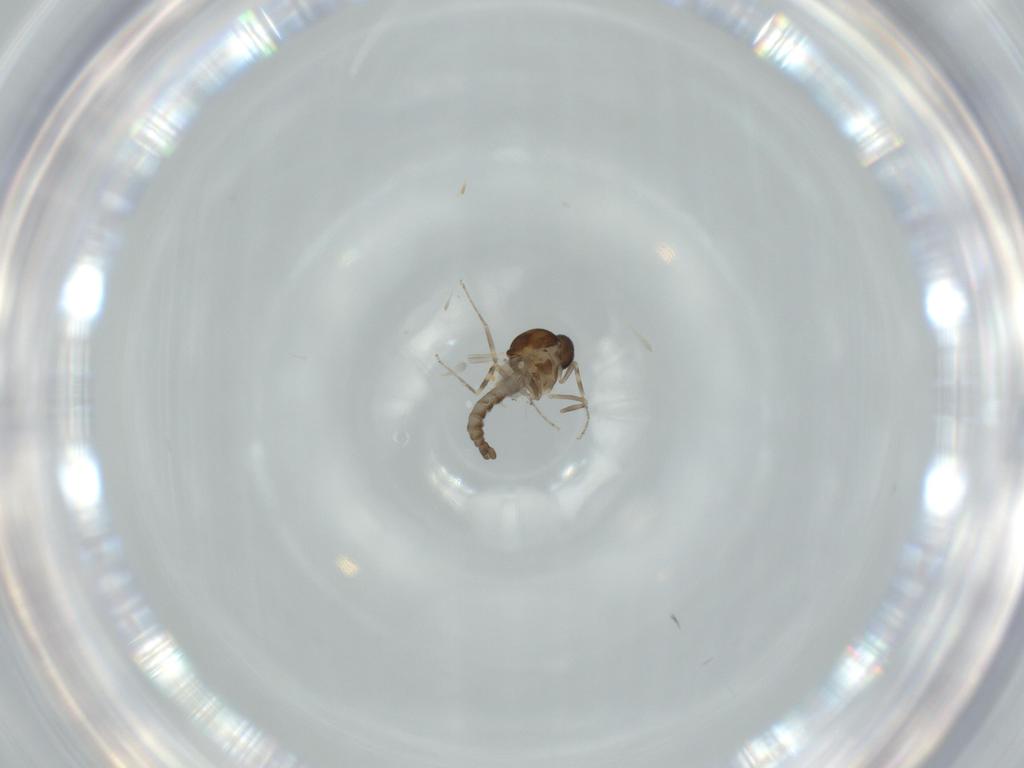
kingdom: Animalia
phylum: Arthropoda
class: Insecta
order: Diptera
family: Ceratopogonidae
